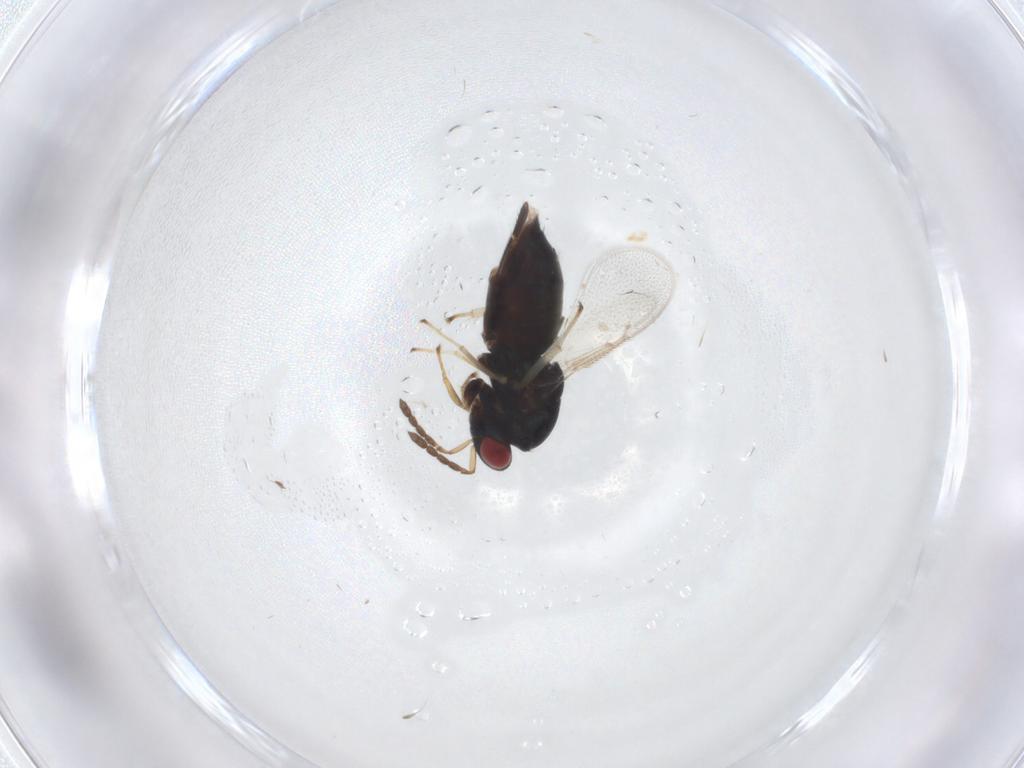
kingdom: Animalia
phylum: Arthropoda
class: Insecta
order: Hymenoptera
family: Eulophidae
